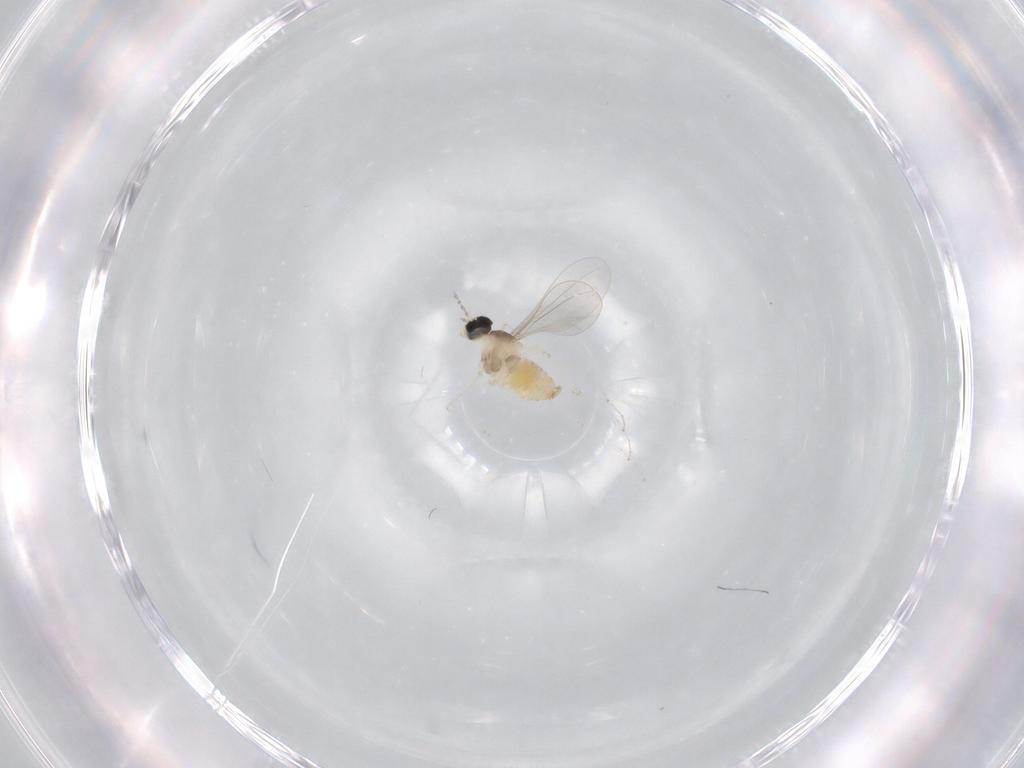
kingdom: Animalia
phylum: Arthropoda
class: Insecta
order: Diptera
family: Cecidomyiidae
